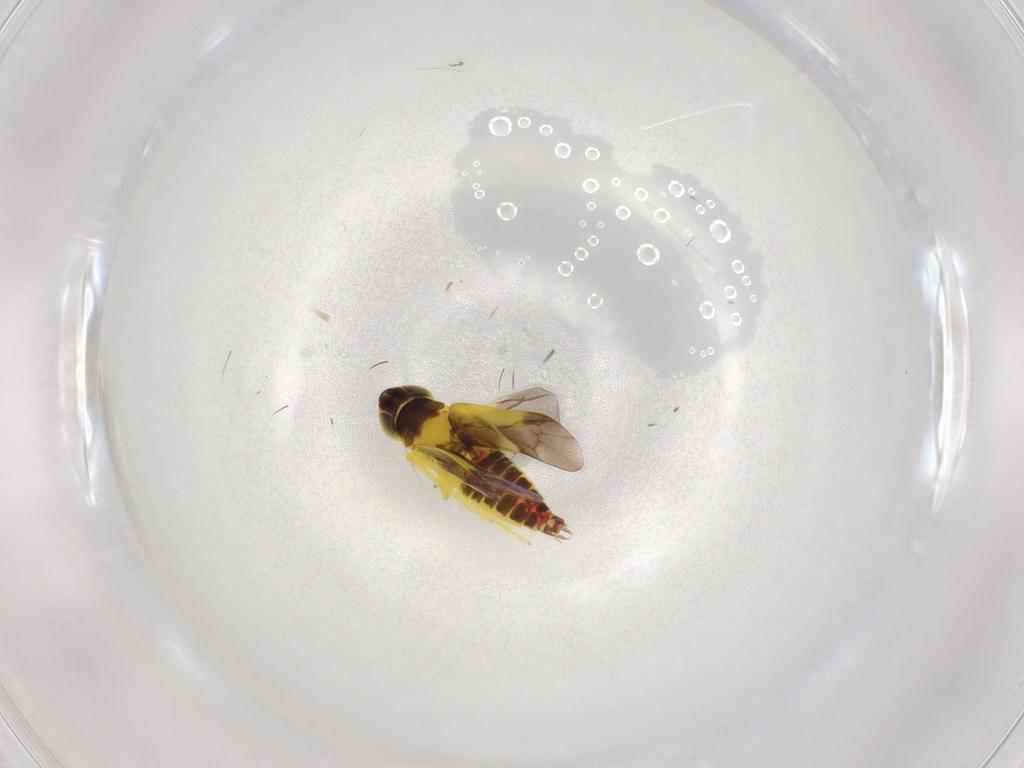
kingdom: Animalia
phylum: Arthropoda
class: Insecta
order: Hemiptera
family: Cicadellidae
